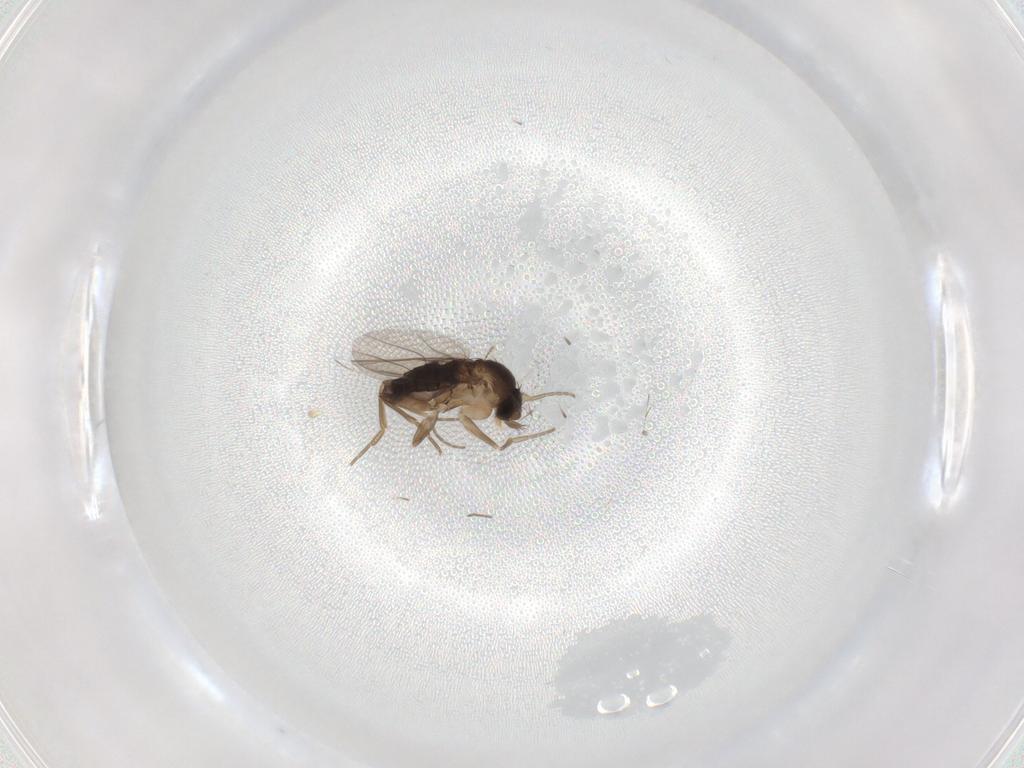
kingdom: Animalia
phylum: Arthropoda
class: Insecta
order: Diptera
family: Phoridae
